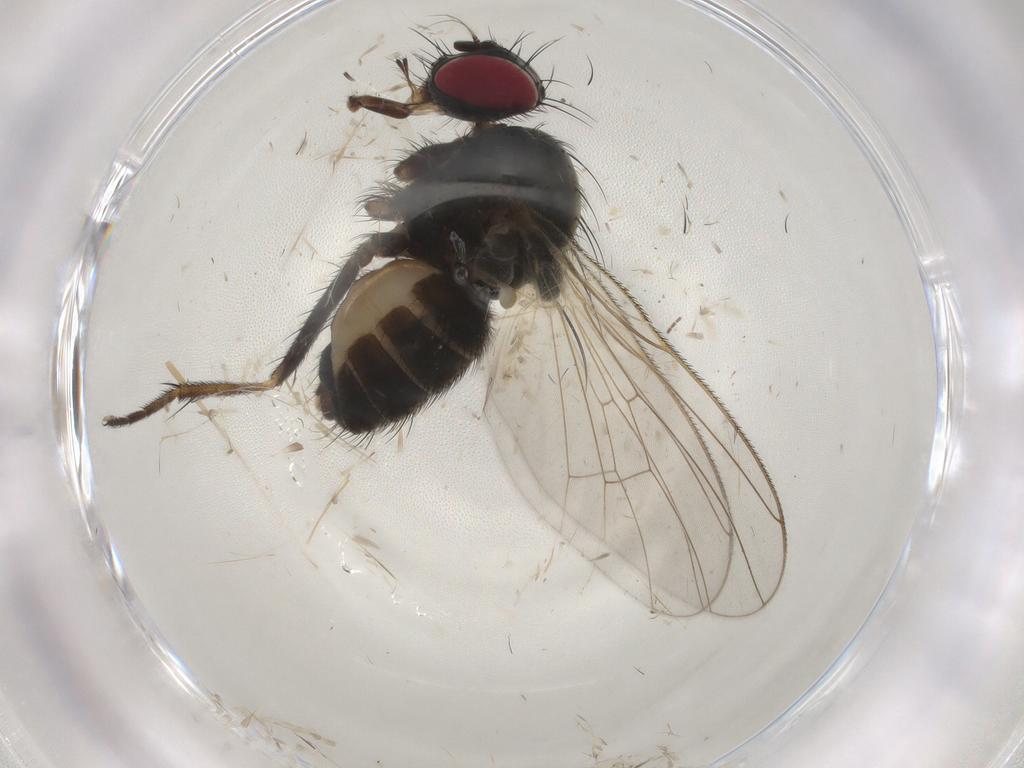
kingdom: Animalia
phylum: Arthropoda
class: Insecta
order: Diptera
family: Muscidae
